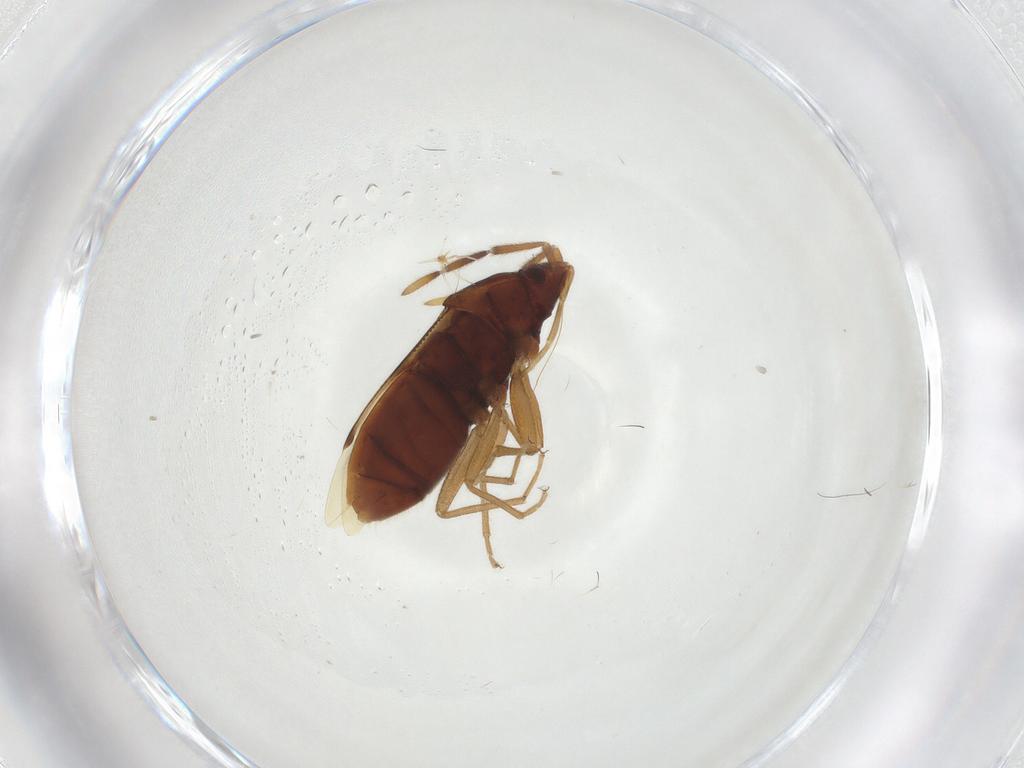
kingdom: Animalia
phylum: Arthropoda
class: Insecta
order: Hemiptera
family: Rhyparochromidae
